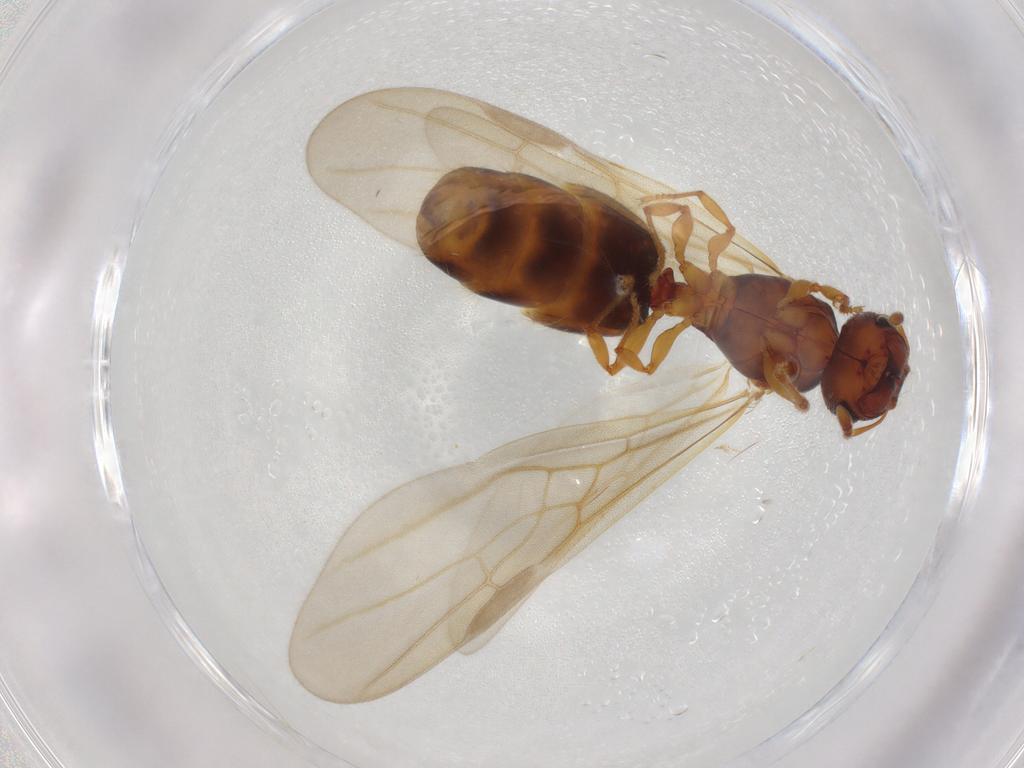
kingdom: Animalia
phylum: Arthropoda
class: Insecta
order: Hymenoptera
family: Formicidae
